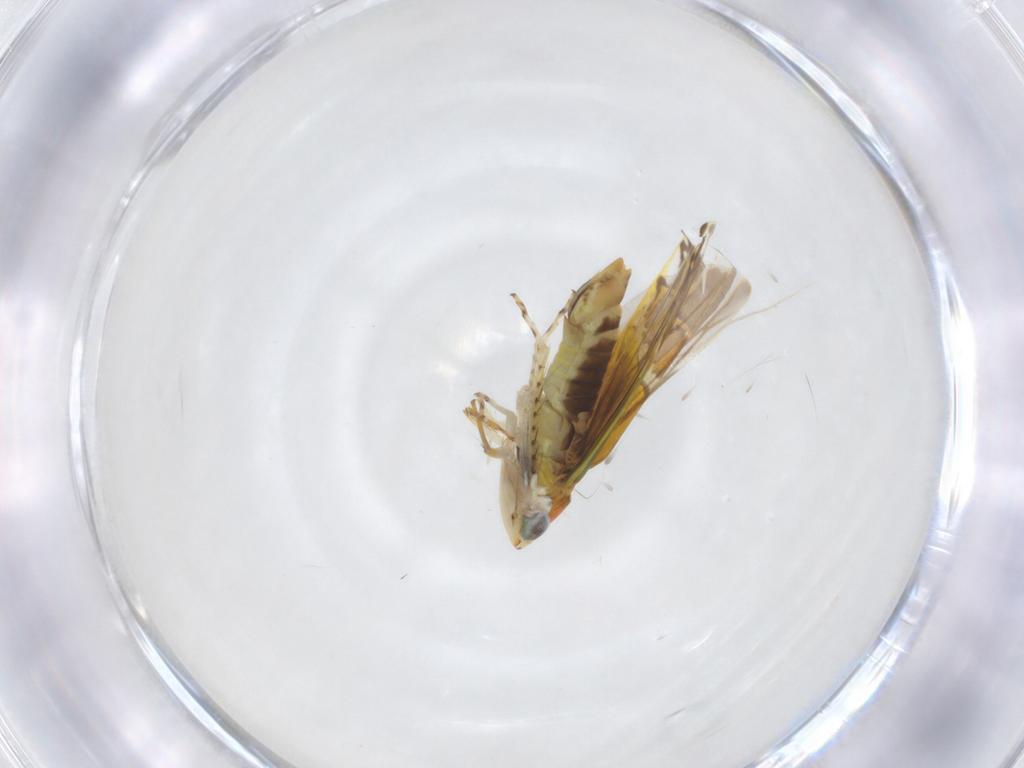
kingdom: Animalia
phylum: Arthropoda
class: Insecta
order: Hemiptera
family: Cicadellidae
